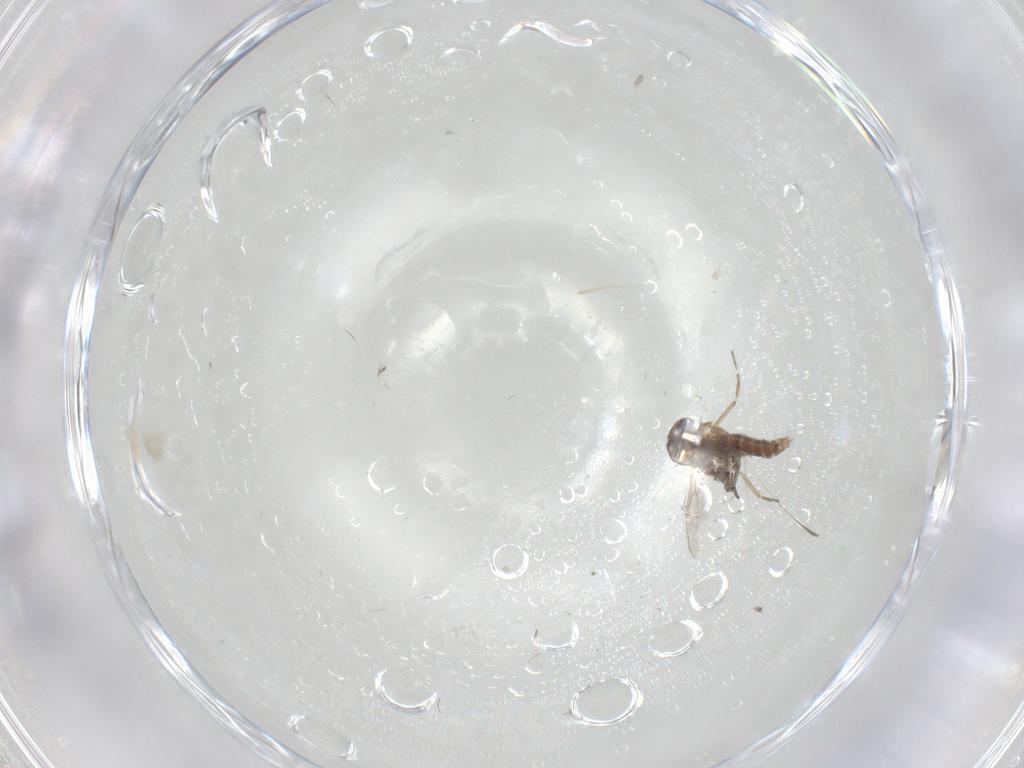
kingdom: Animalia
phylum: Arthropoda
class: Insecta
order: Diptera
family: Ceratopogonidae
